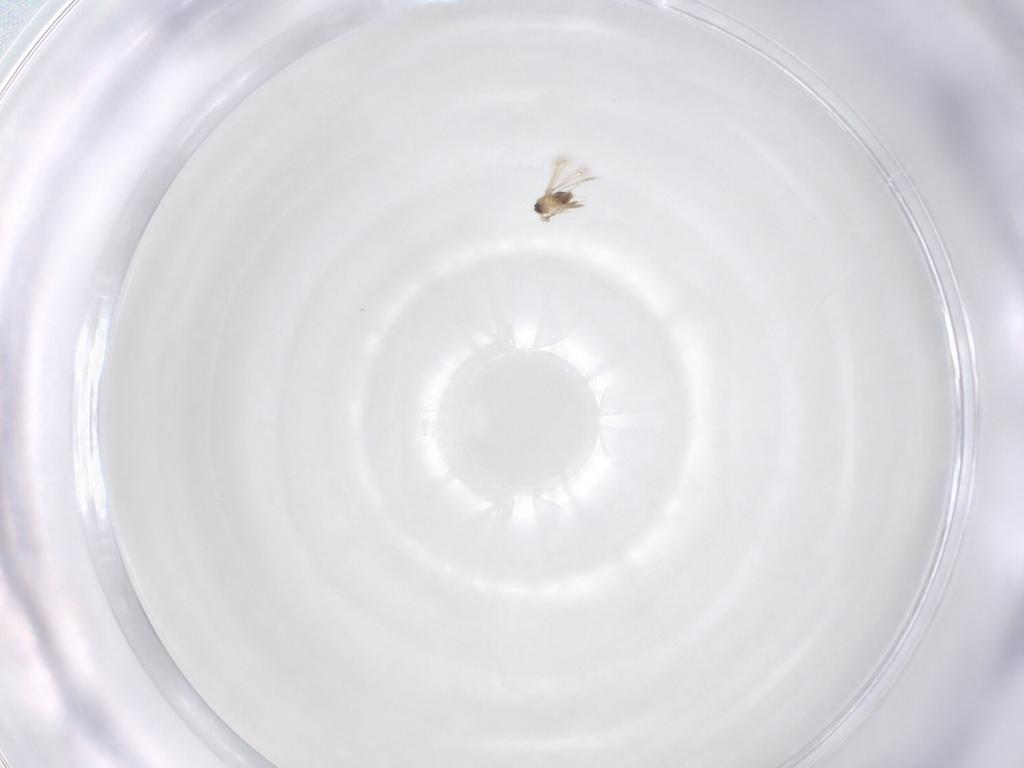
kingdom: Animalia
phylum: Arthropoda
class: Insecta
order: Hymenoptera
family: Mymaridae
